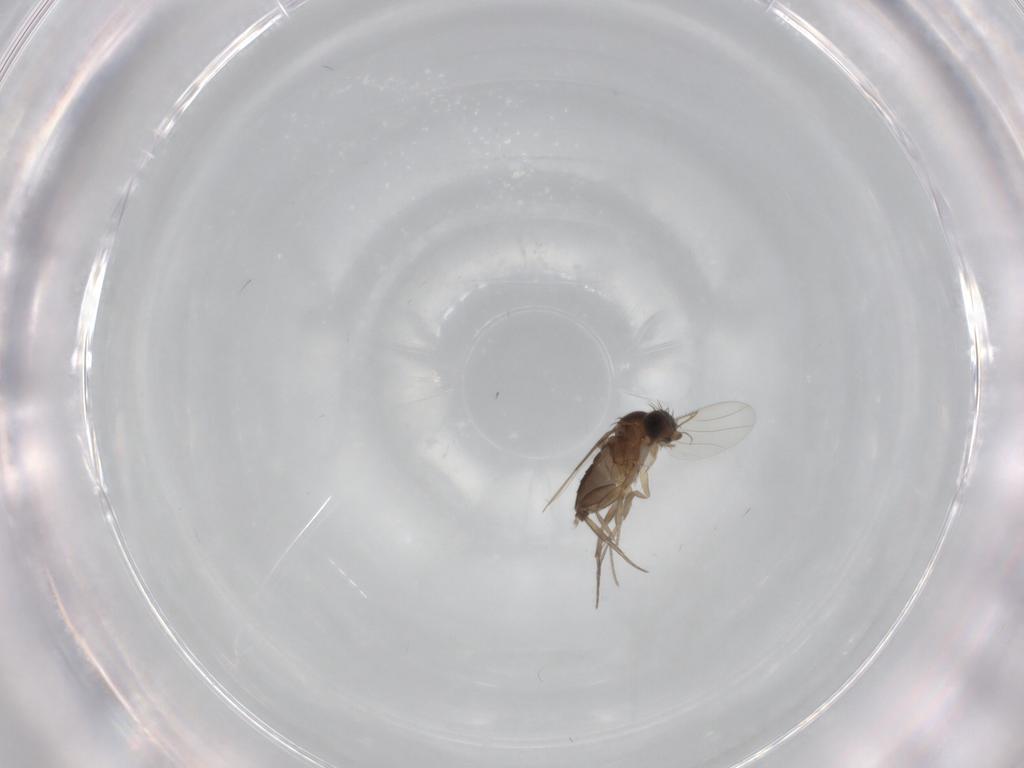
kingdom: Animalia
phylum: Arthropoda
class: Insecta
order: Diptera
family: Phoridae
